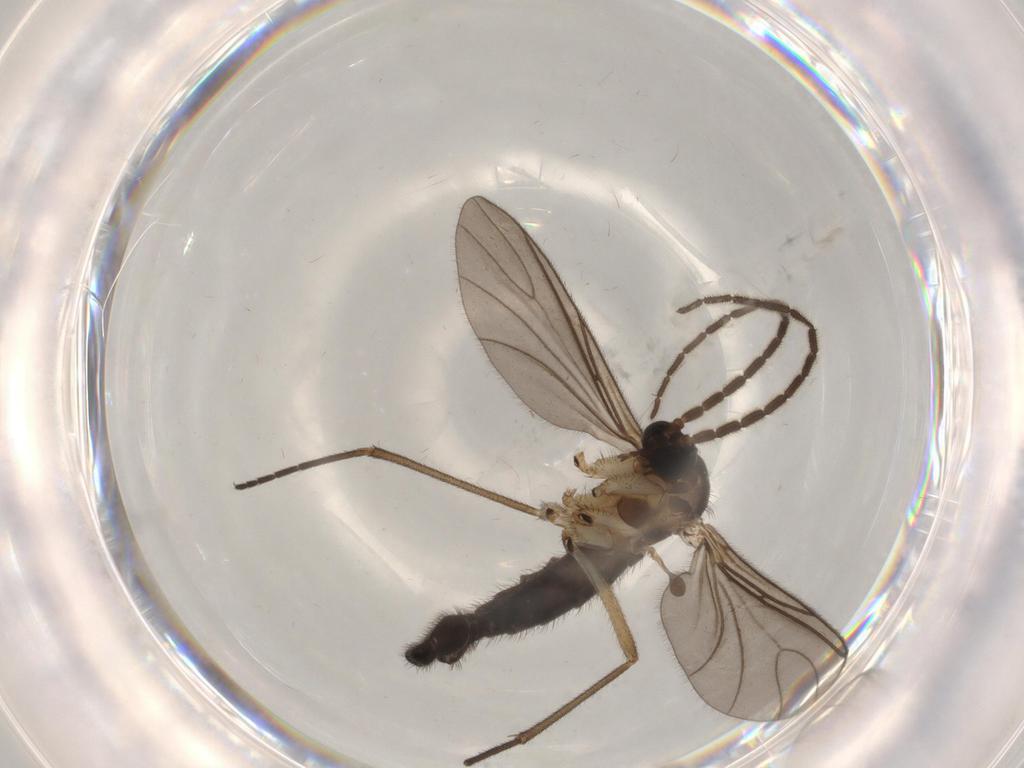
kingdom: Animalia
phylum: Arthropoda
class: Insecta
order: Diptera
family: Sciaridae
